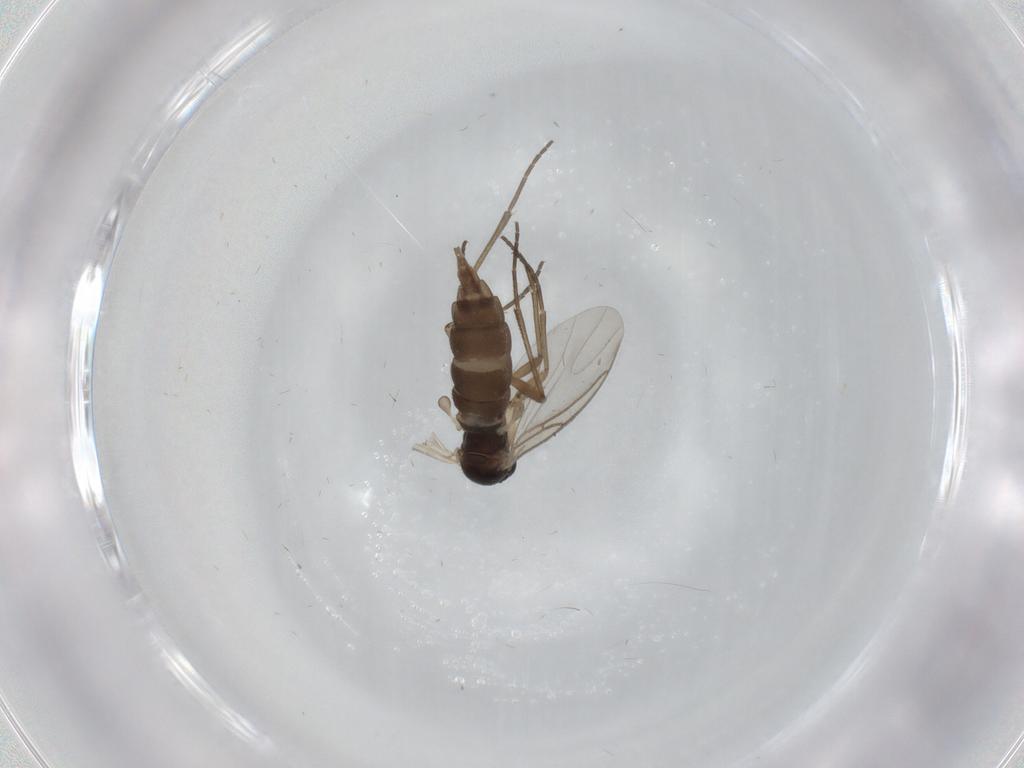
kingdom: Animalia
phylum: Arthropoda
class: Insecta
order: Diptera
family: Sciaridae
